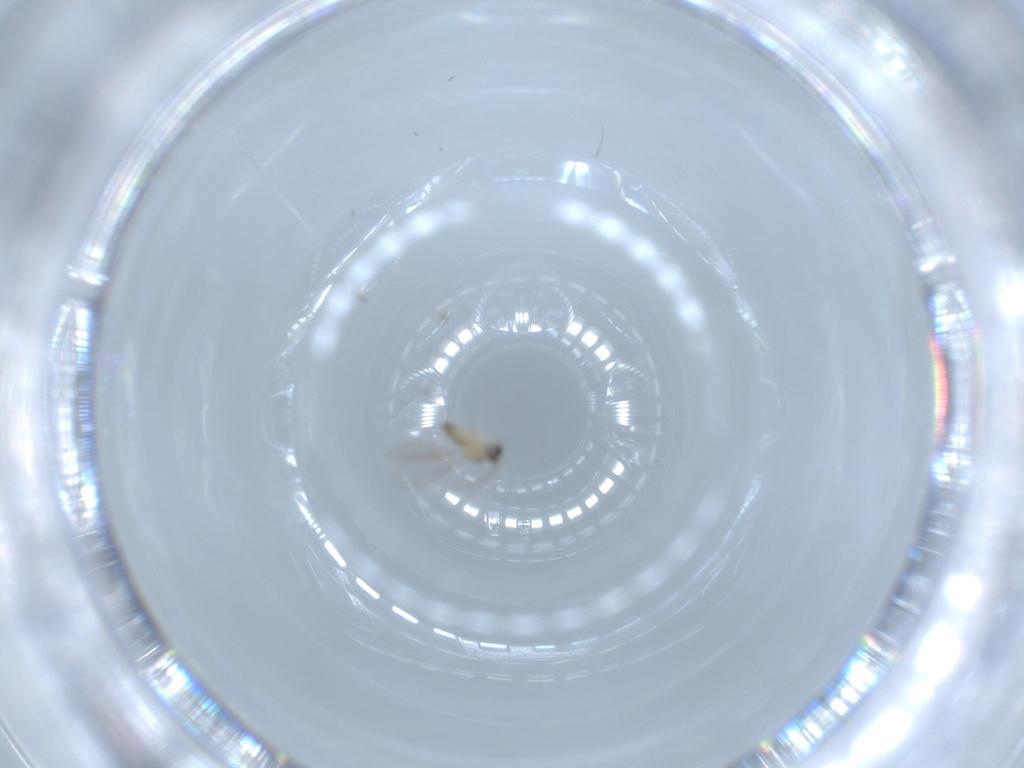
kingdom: Animalia
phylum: Arthropoda
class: Insecta
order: Diptera
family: Cecidomyiidae
